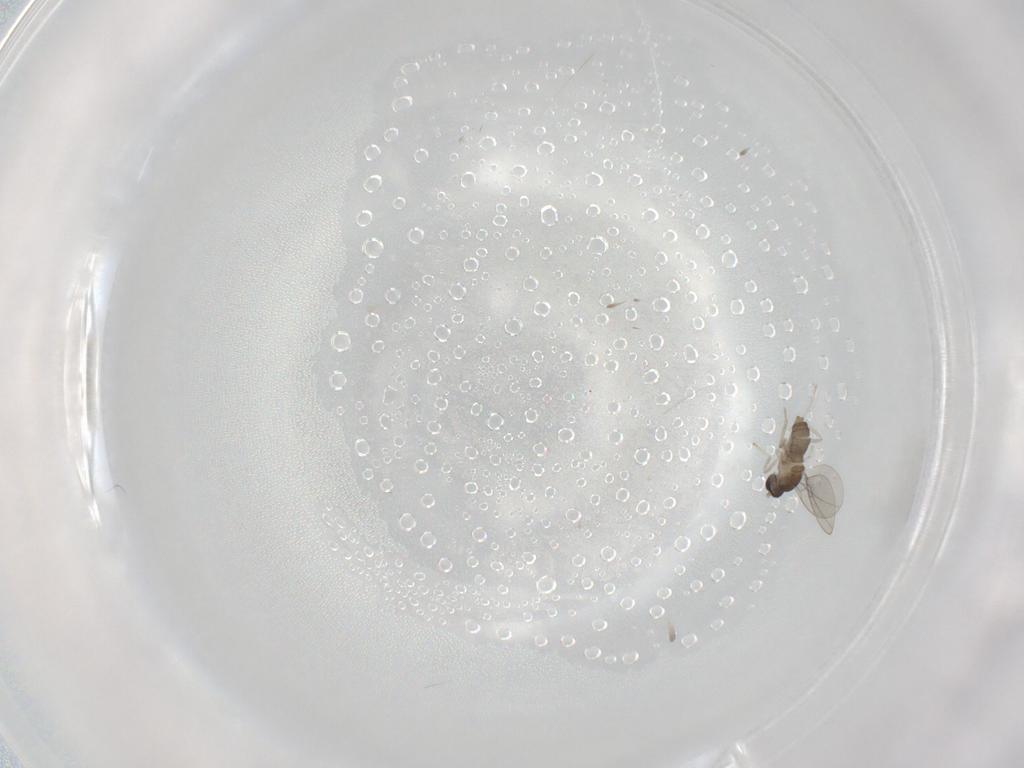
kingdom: Animalia
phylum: Arthropoda
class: Insecta
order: Diptera
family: Cecidomyiidae
